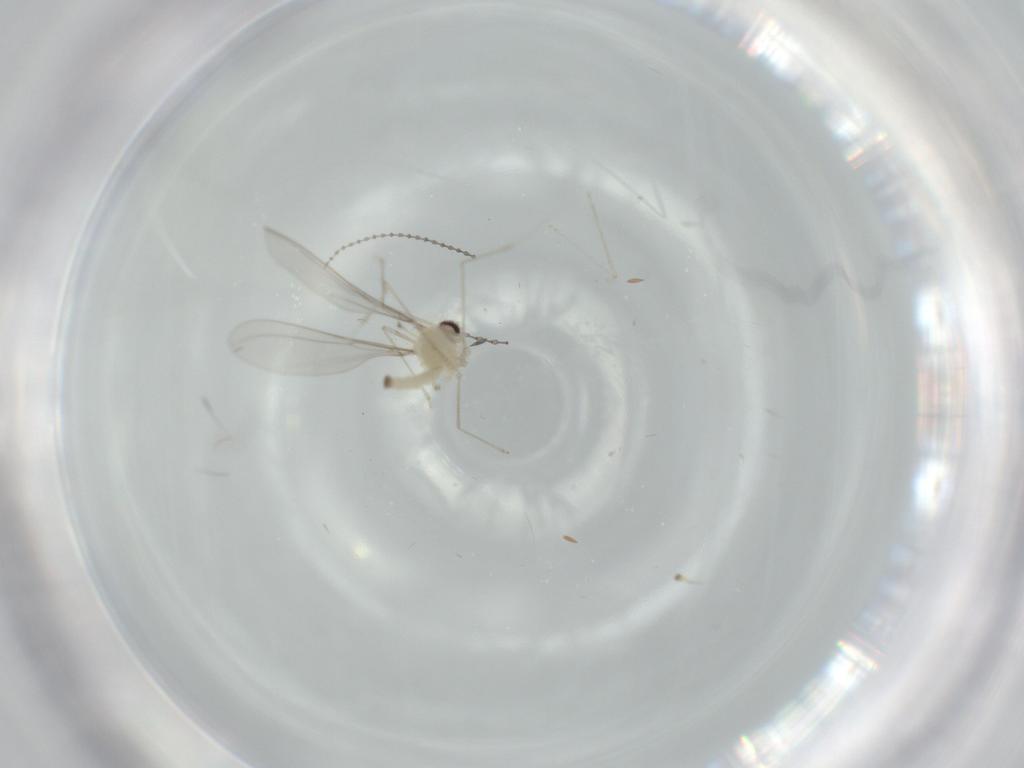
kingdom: Animalia
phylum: Arthropoda
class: Insecta
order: Diptera
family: Cecidomyiidae
